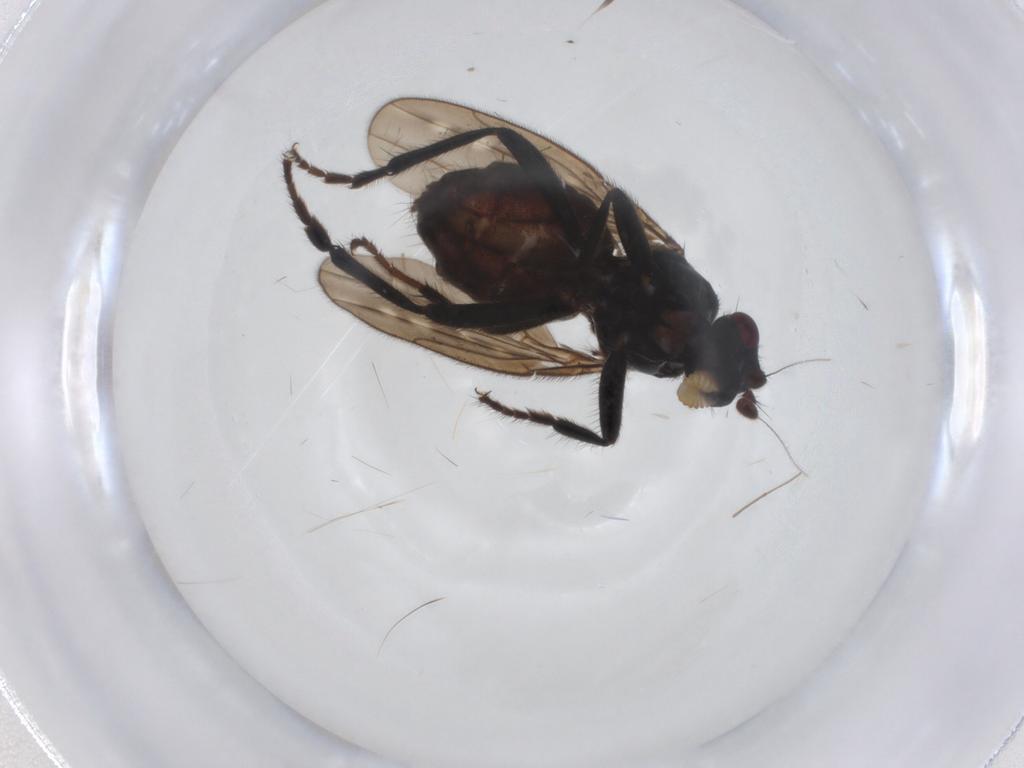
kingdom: Animalia
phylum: Arthropoda
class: Insecta
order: Diptera
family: Sphaeroceridae
